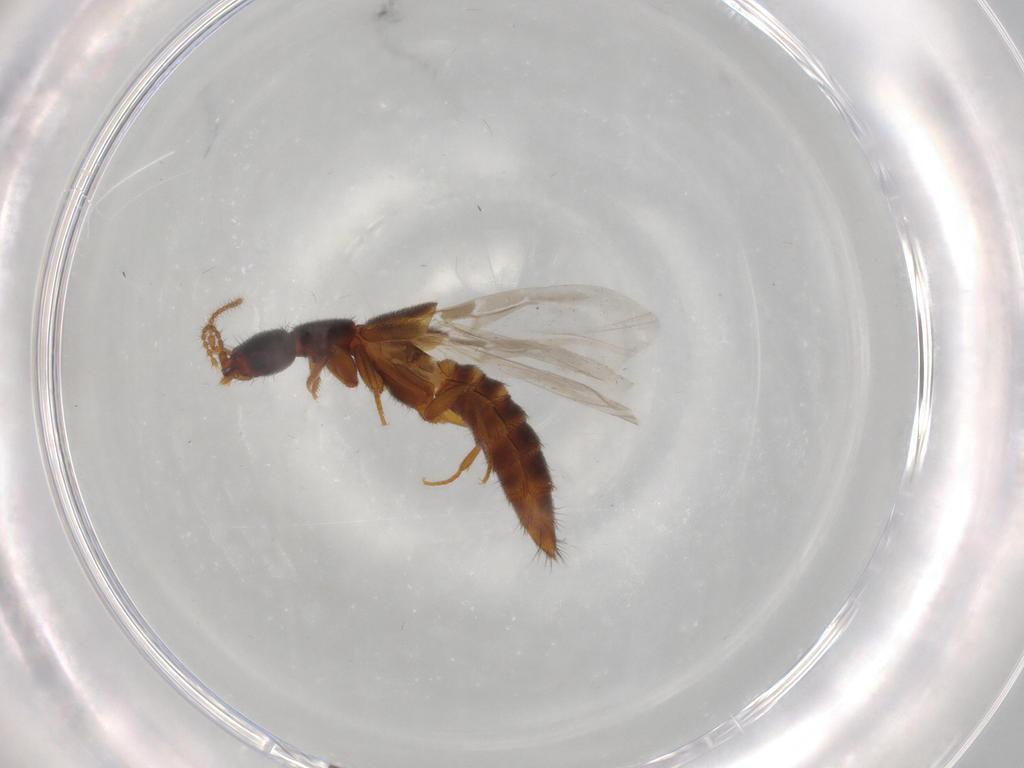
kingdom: Animalia
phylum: Arthropoda
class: Insecta
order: Coleoptera
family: Staphylinidae
